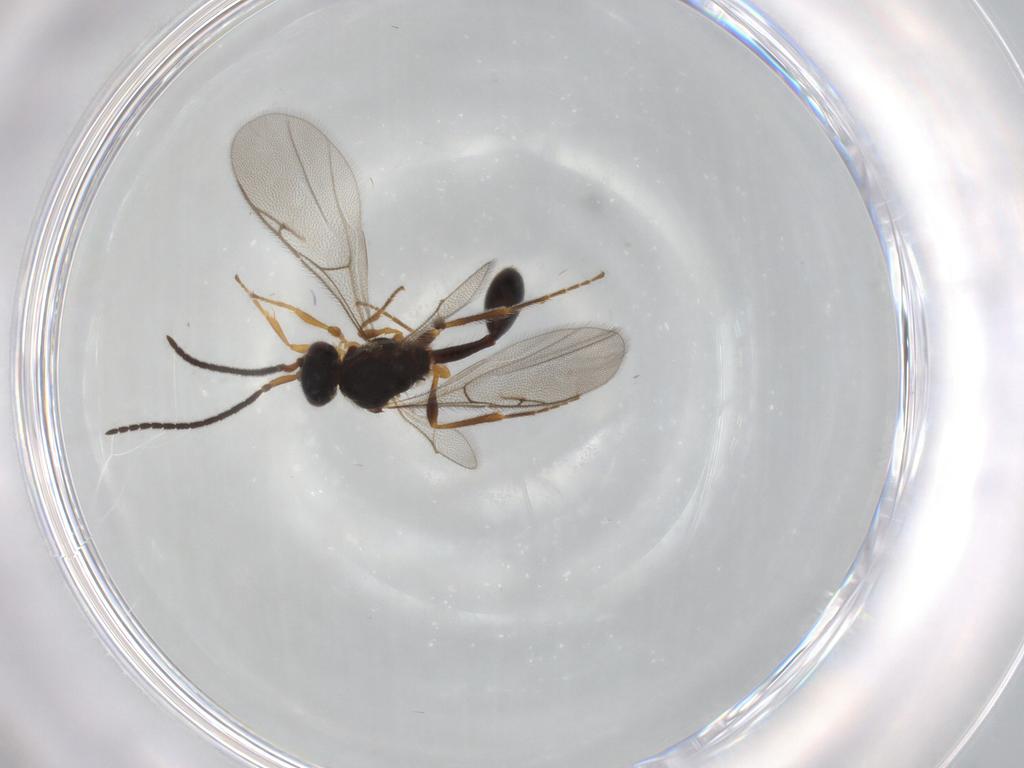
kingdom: Animalia
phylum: Arthropoda
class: Insecta
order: Hymenoptera
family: Diapriidae
